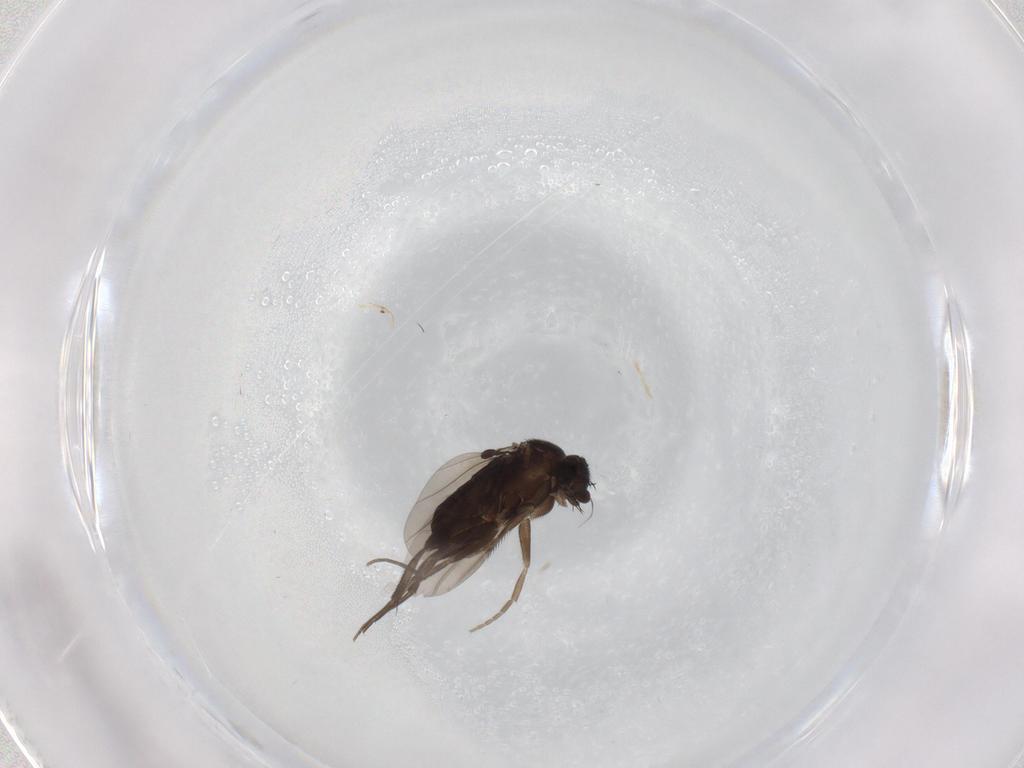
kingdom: Animalia
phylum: Arthropoda
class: Insecta
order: Diptera
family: Phoridae
